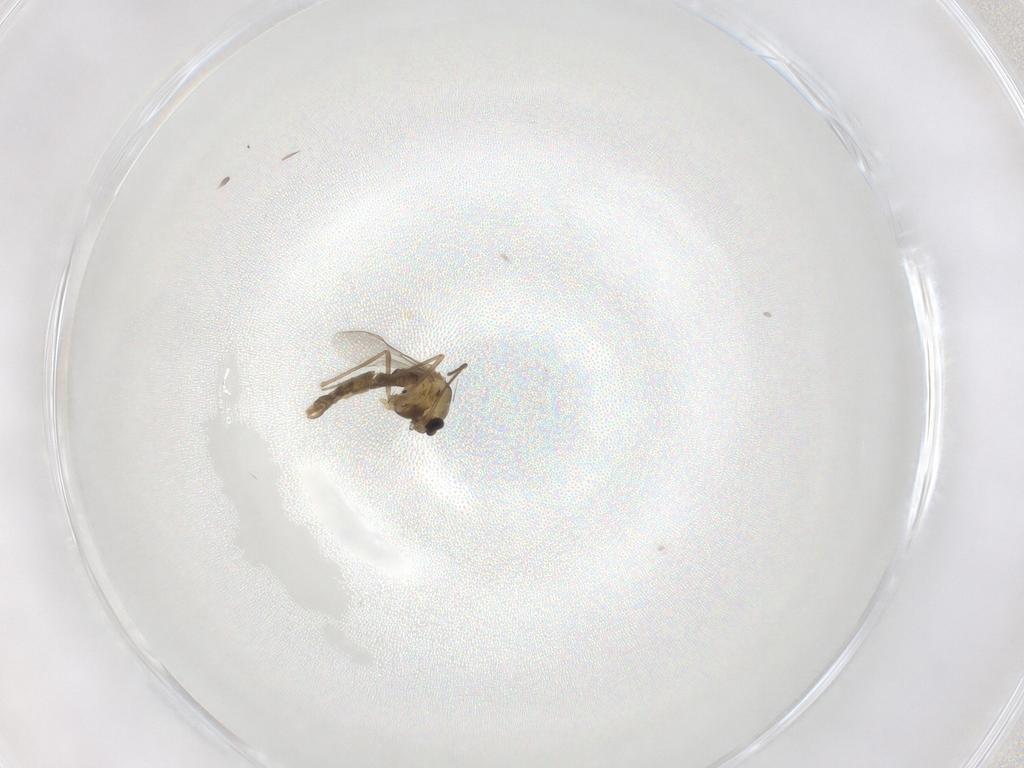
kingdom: Animalia
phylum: Arthropoda
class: Insecta
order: Diptera
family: Chironomidae
